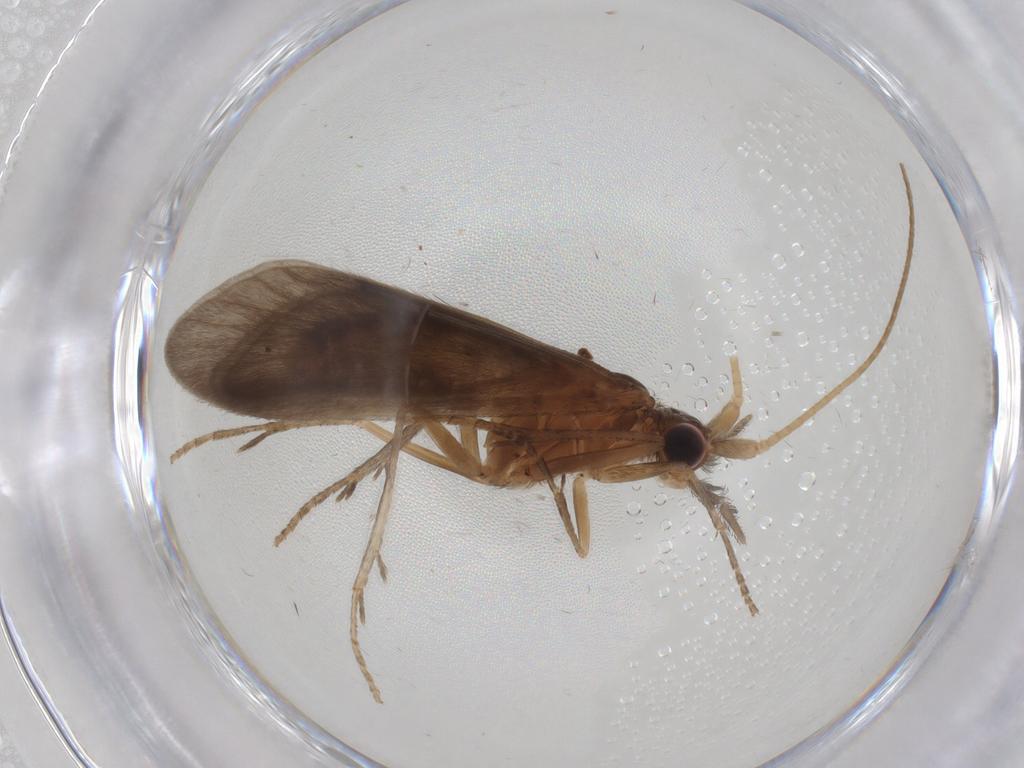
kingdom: Animalia
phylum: Arthropoda
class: Insecta
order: Trichoptera
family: Helicopsychidae
